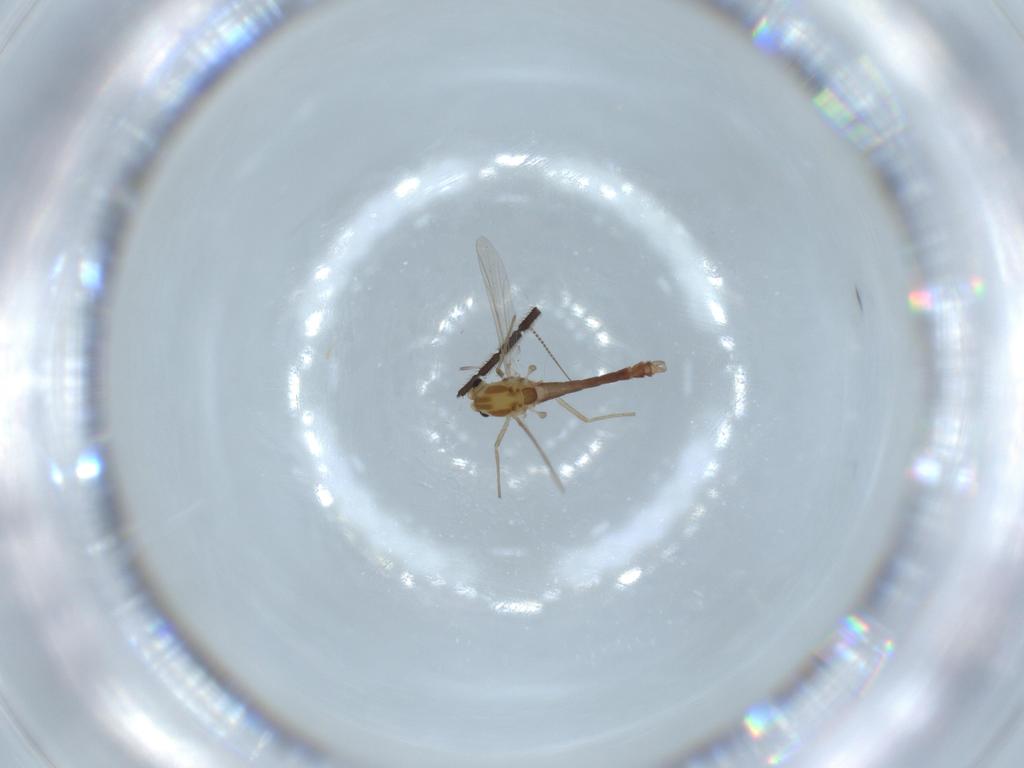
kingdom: Animalia
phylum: Arthropoda
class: Insecta
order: Diptera
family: Chironomidae
